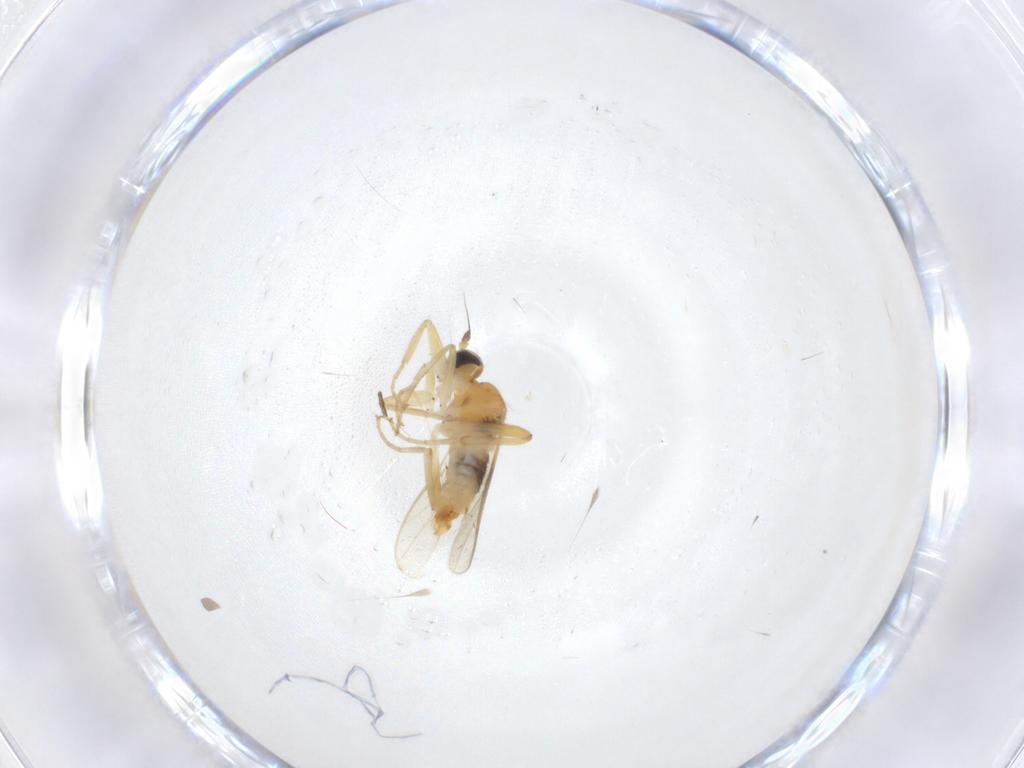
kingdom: Animalia
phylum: Arthropoda
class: Insecta
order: Diptera
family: Hybotidae
